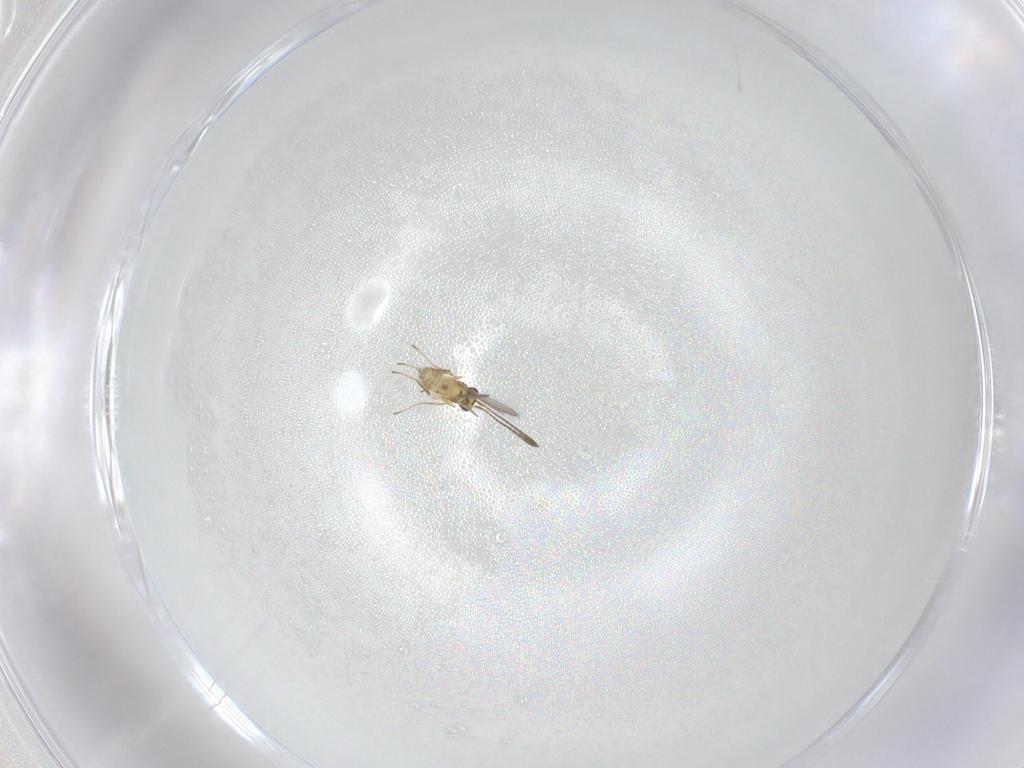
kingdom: Animalia
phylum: Arthropoda
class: Insecta
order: Hymenoptera
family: Mymaridae
